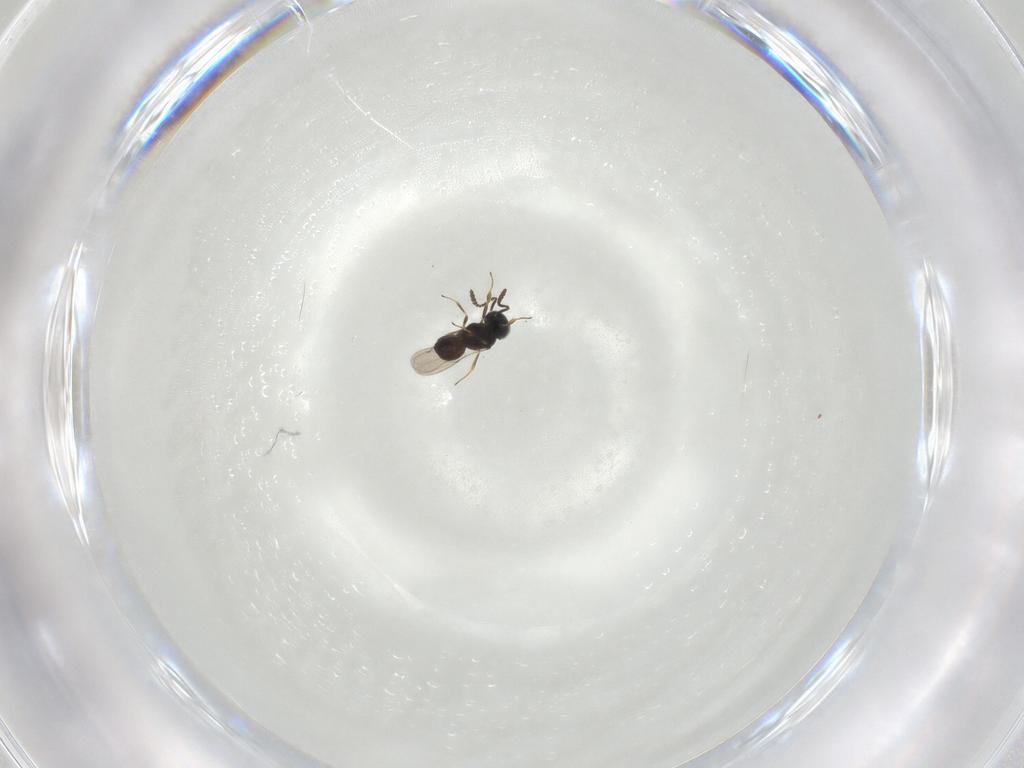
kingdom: Animalia
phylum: Arthropoda
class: Insecta
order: Hymenoptera
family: Scelionidae
